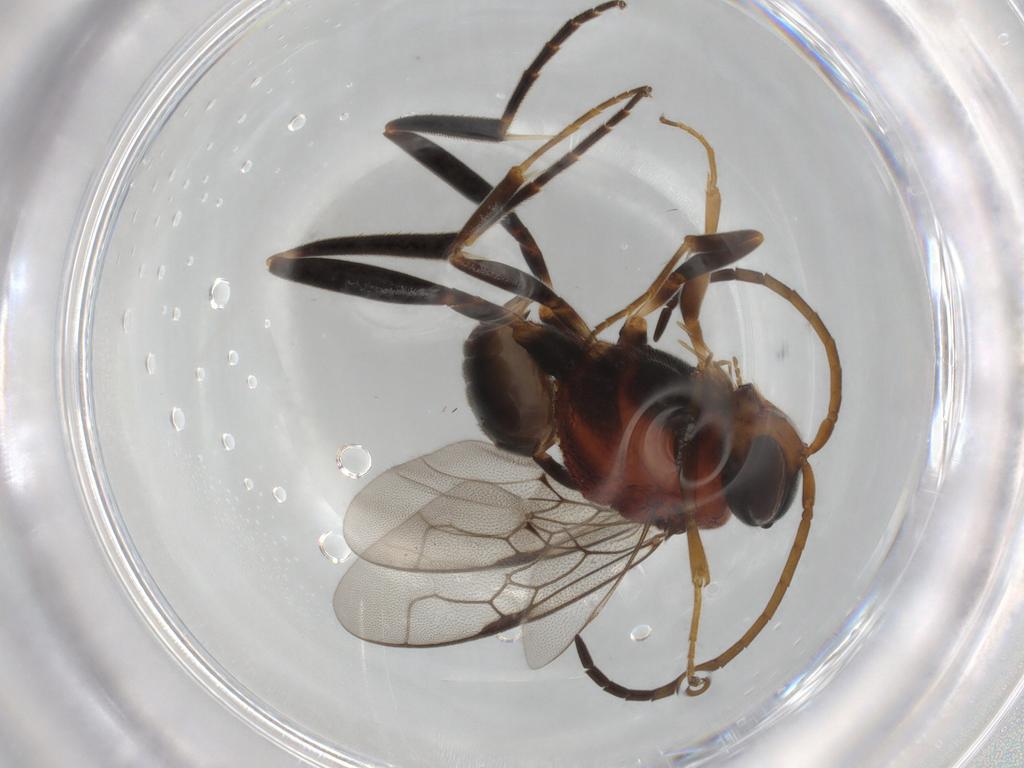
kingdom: Animalia
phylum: Arthropoda
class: Insecta
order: Hymenoptera
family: Evaniidae
